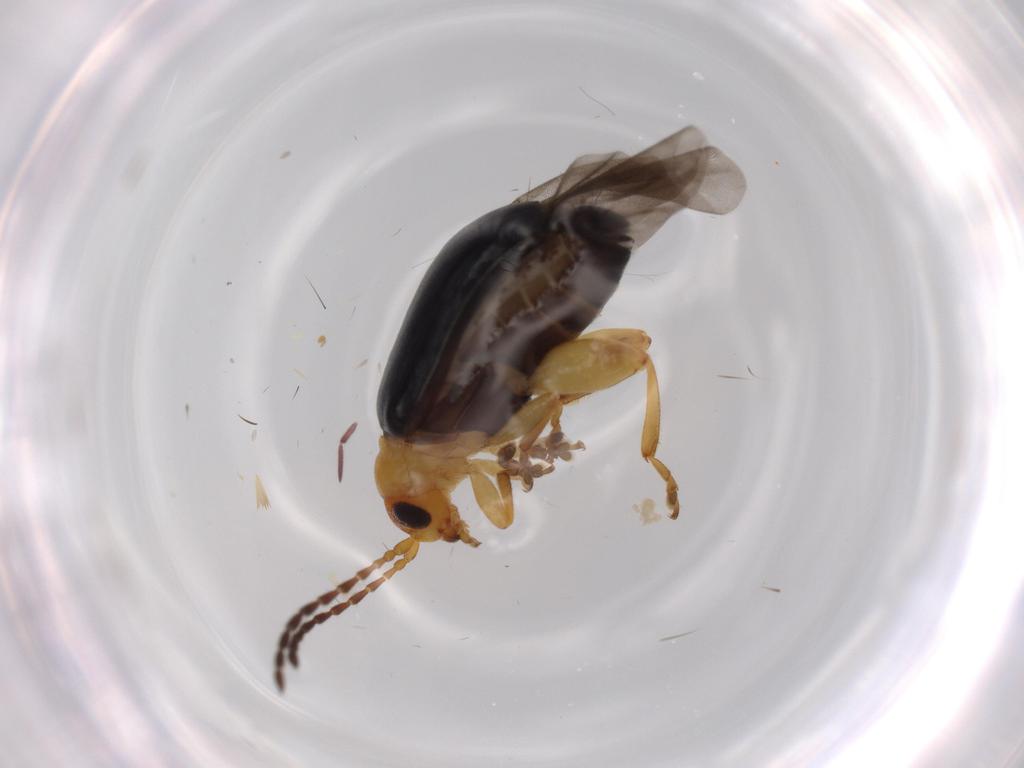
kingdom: Animalia
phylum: Arthropoda
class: Insecta
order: Coleoptera
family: Chrysomelidae
